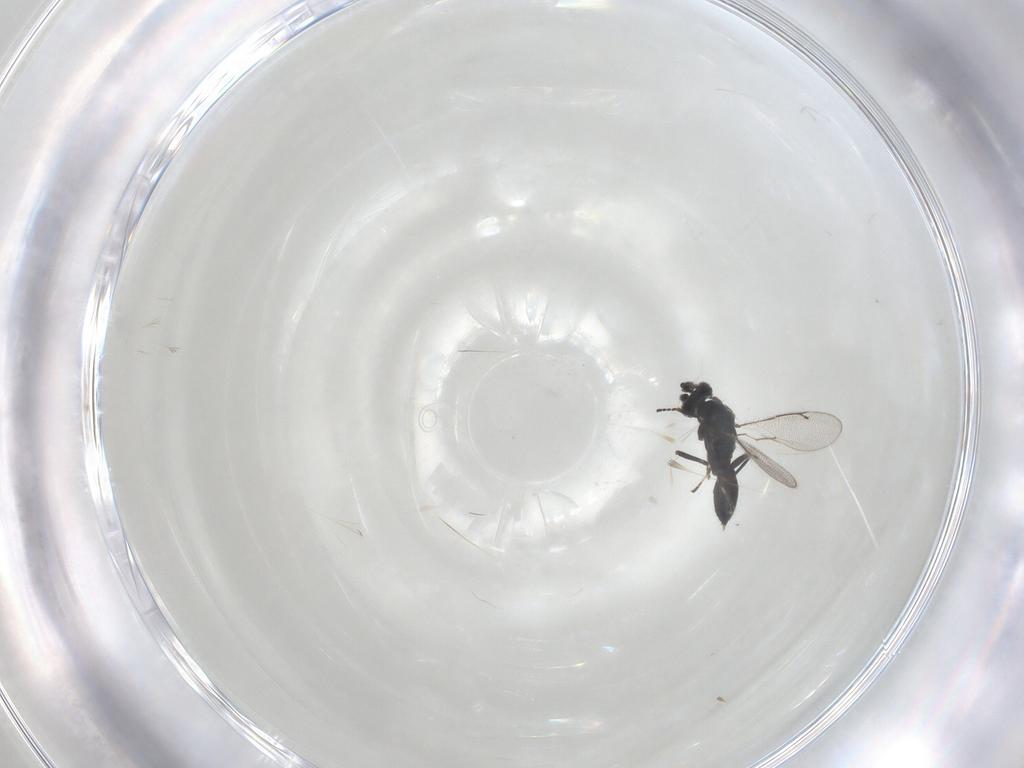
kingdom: Animalia
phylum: Arthropoda
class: Insecta
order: Hymenoptera
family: Eulophidae
